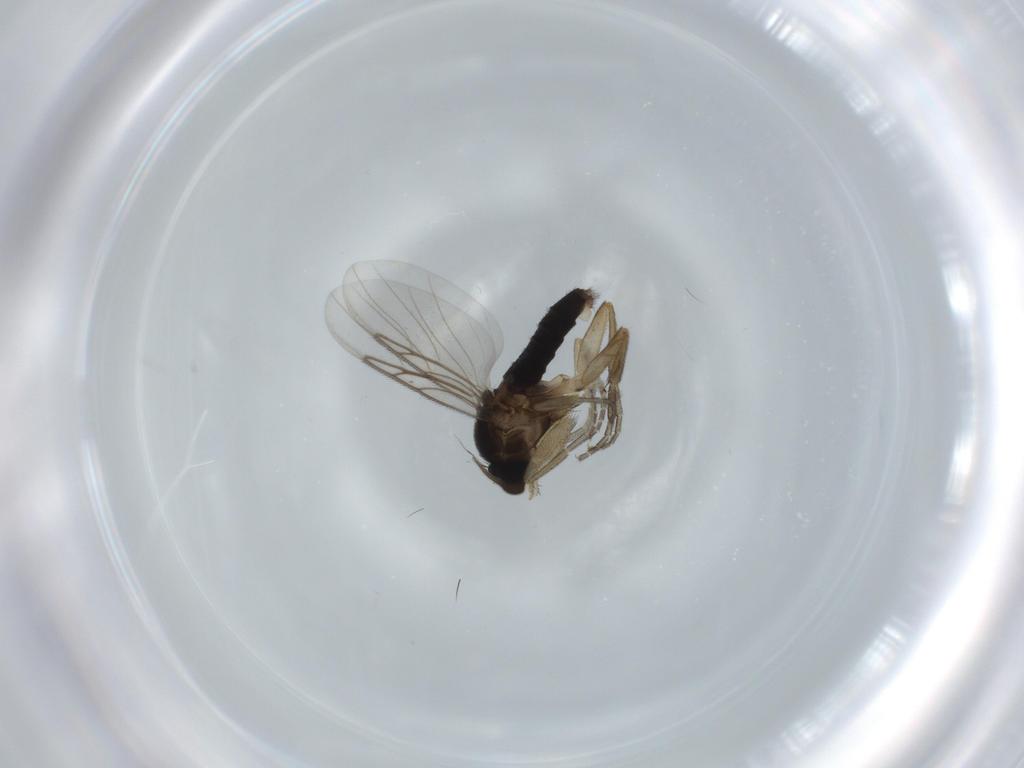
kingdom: Animalia
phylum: Arthropoda
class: Insecta
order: Diptera
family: Phoridae
